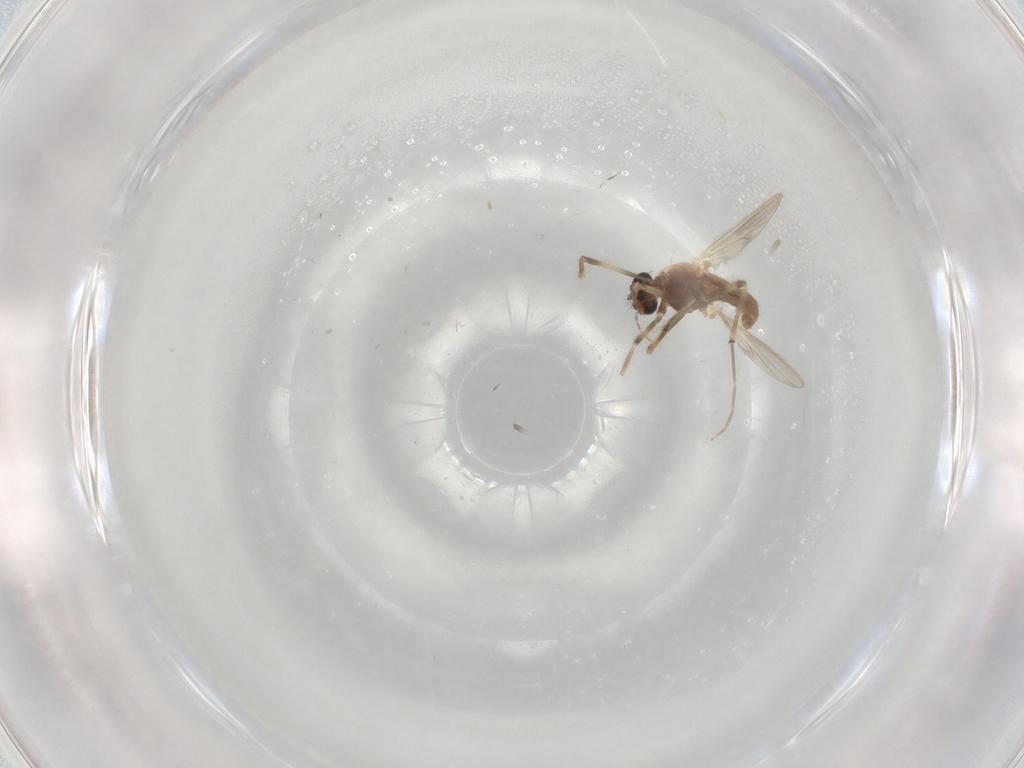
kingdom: Animalia
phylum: Arthropoda
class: Insecta
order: Diptera
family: Chironomidae
